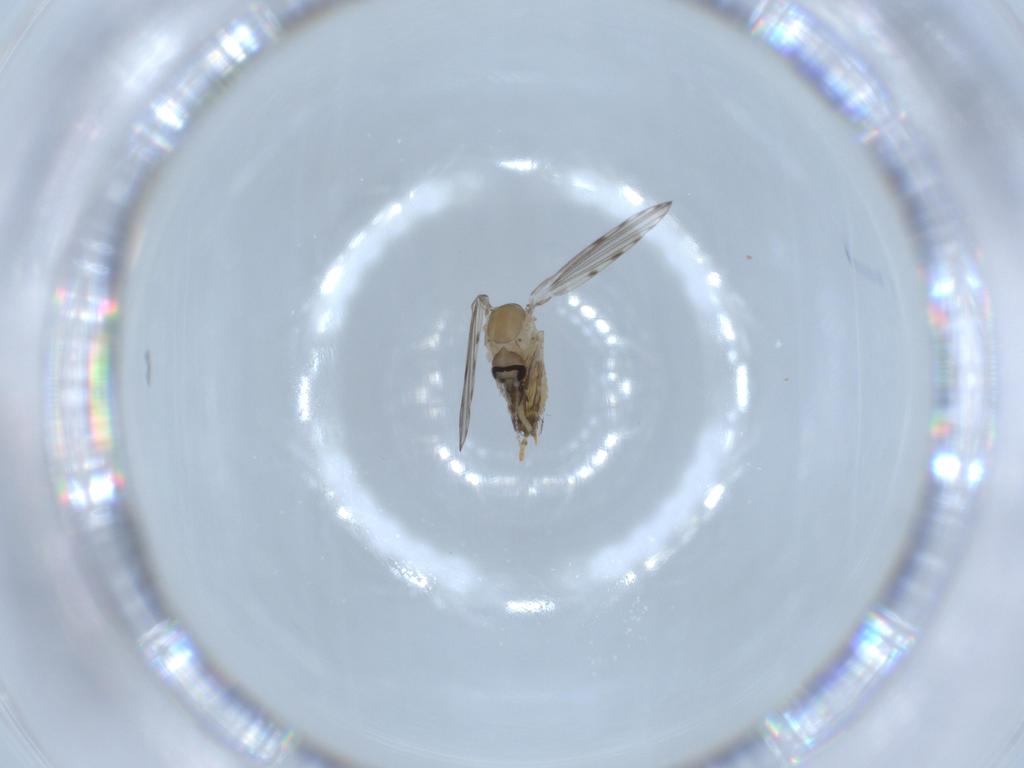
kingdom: Animalia
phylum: Arthropoda
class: Insecta
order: Diptera
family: Psychodidae
